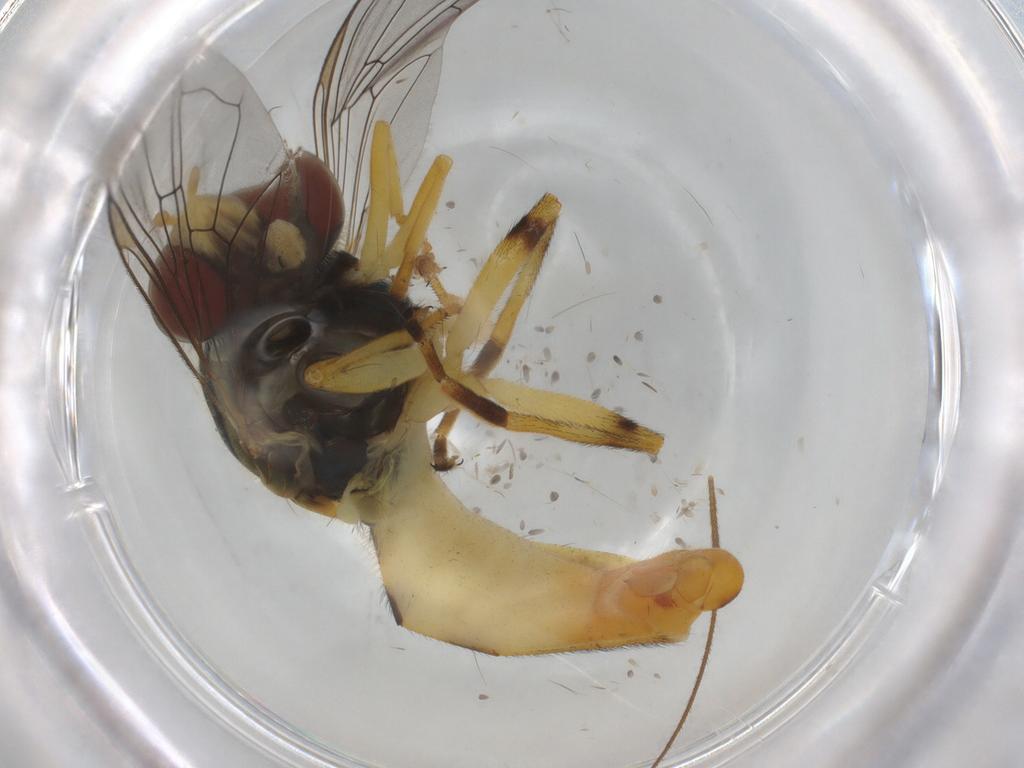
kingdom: Animalia
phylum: Arthropoda
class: Insecta
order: Diptera
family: Syrphidae
